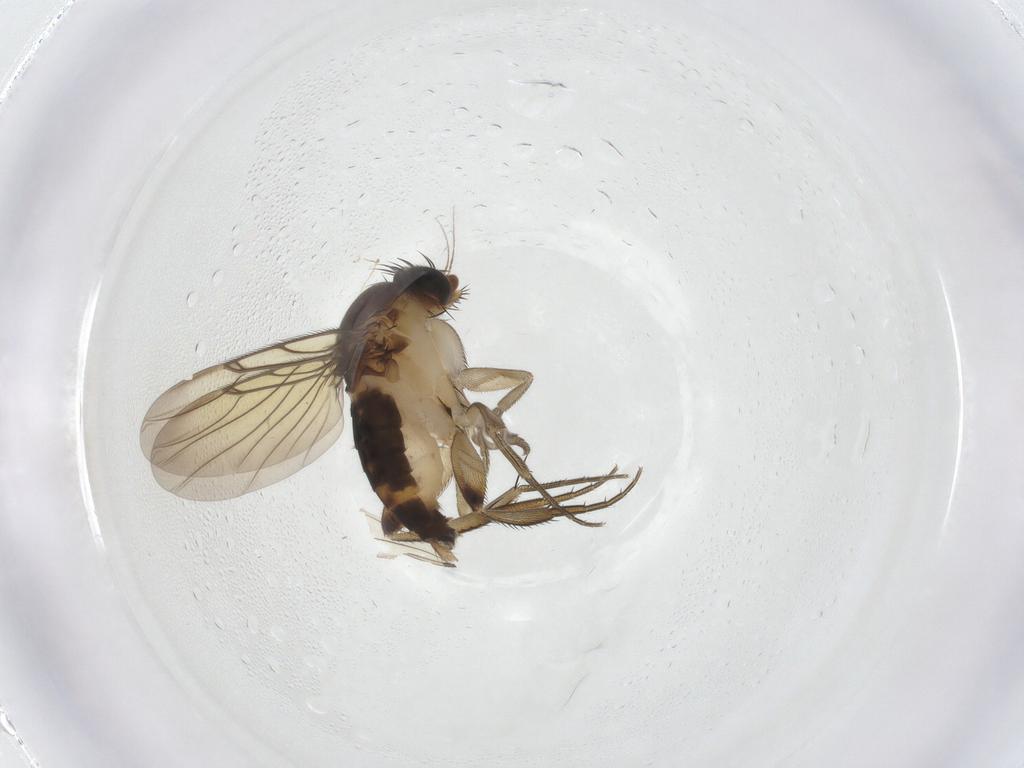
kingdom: Animalia
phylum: Arthropoda
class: Insecta
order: Diptera
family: Phoridae
